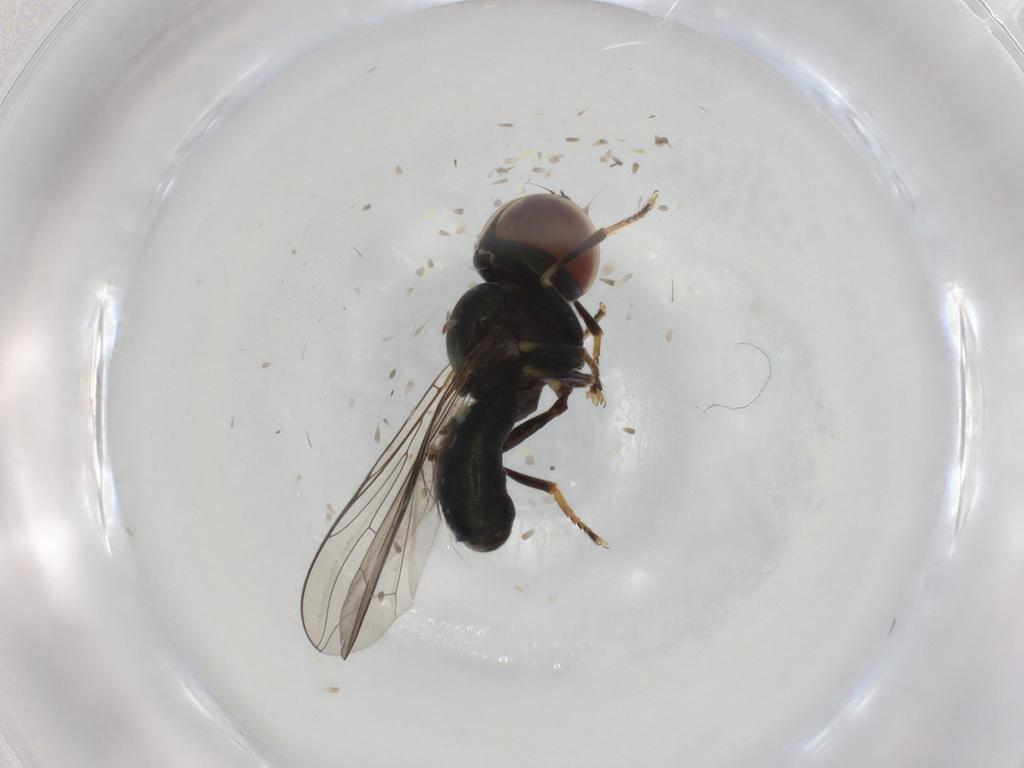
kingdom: Animalia
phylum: Arthropoda
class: Insecta
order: Diptera
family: Pipunculidae
